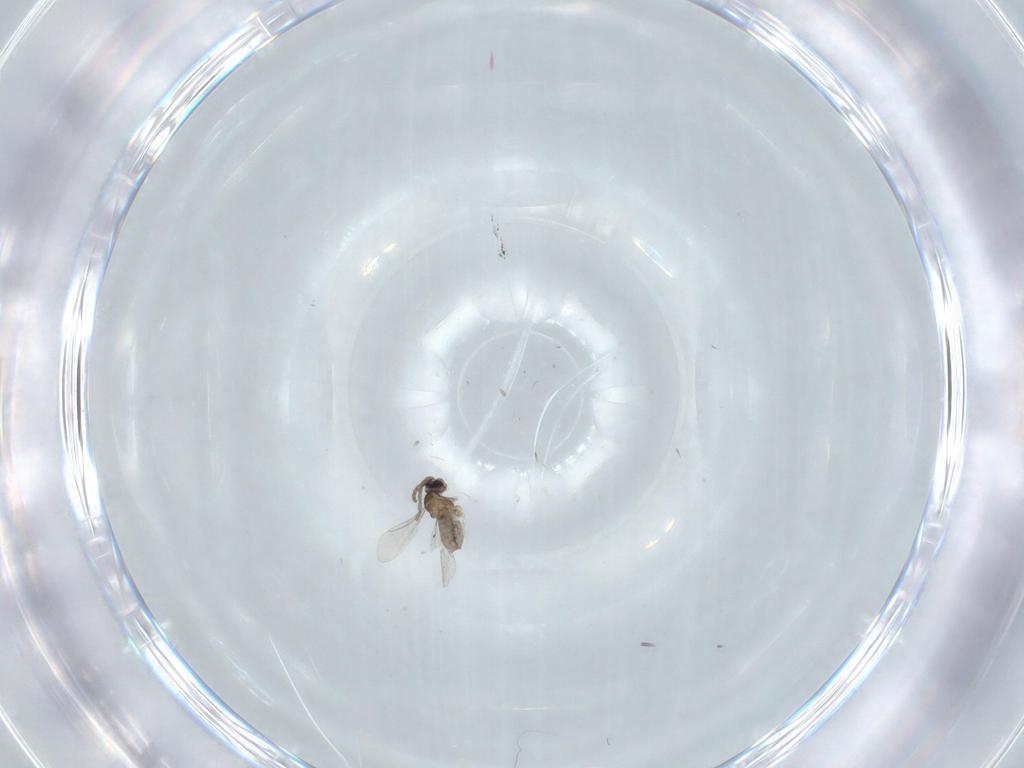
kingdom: Animalia
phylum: Arthropoda
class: Insecta
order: Diptera
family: Cecidomyiidae
